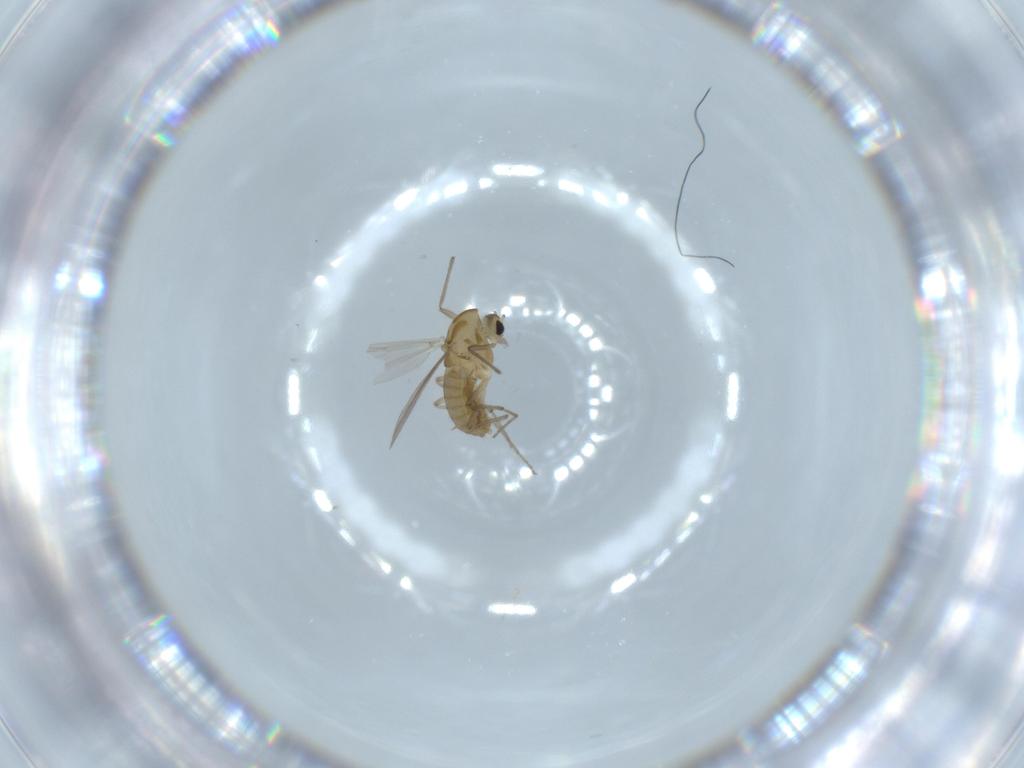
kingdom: Animalia
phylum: Arthropoda
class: Insecta
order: Diptera
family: Chironomidae
